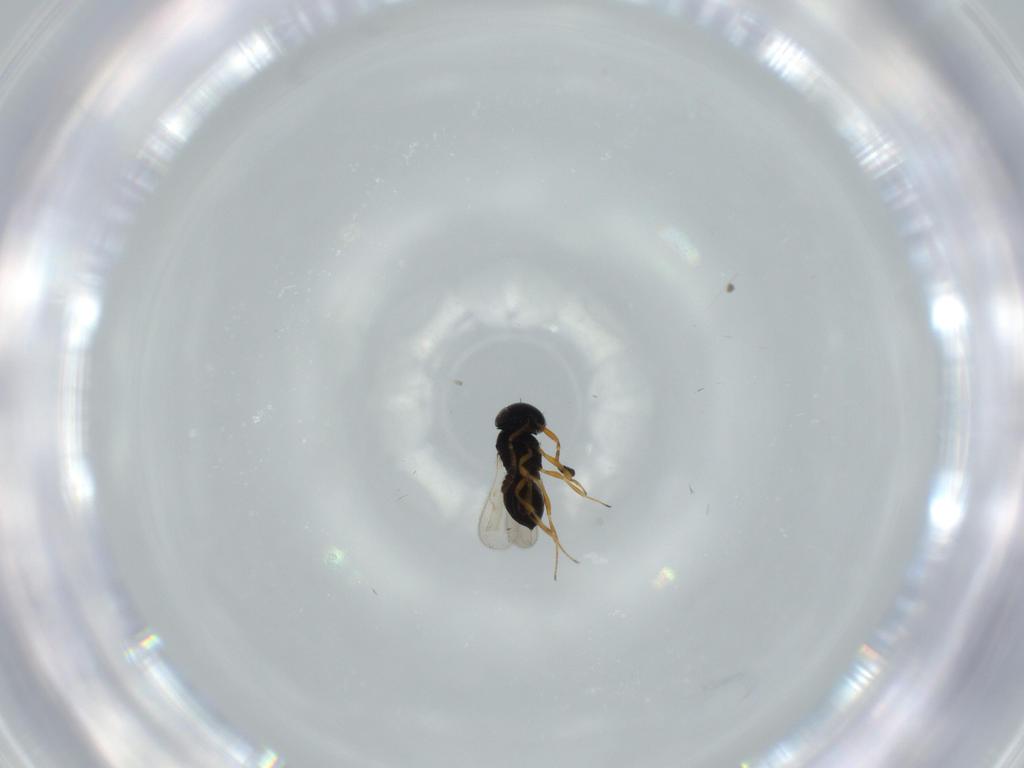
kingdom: Animalia
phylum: Arthropoda
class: Insecta
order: Hymenoptera
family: Scelionidae
